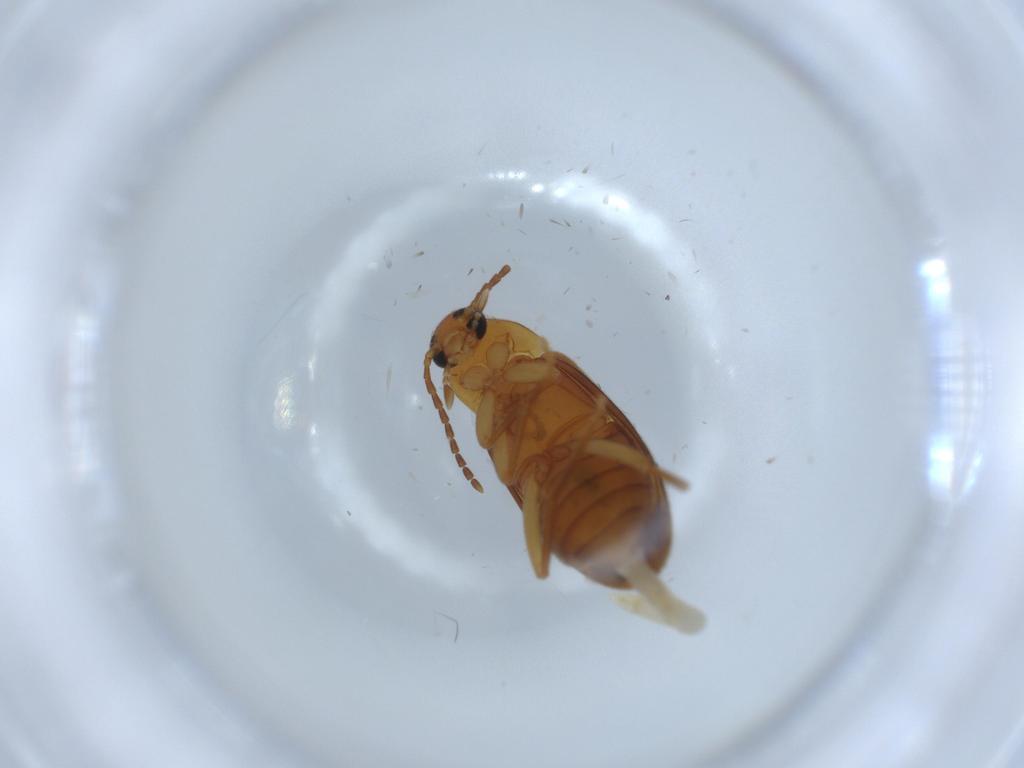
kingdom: Animalia
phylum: Arthropoda
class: Insecta
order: Coleoptera
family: Scraptiidae
